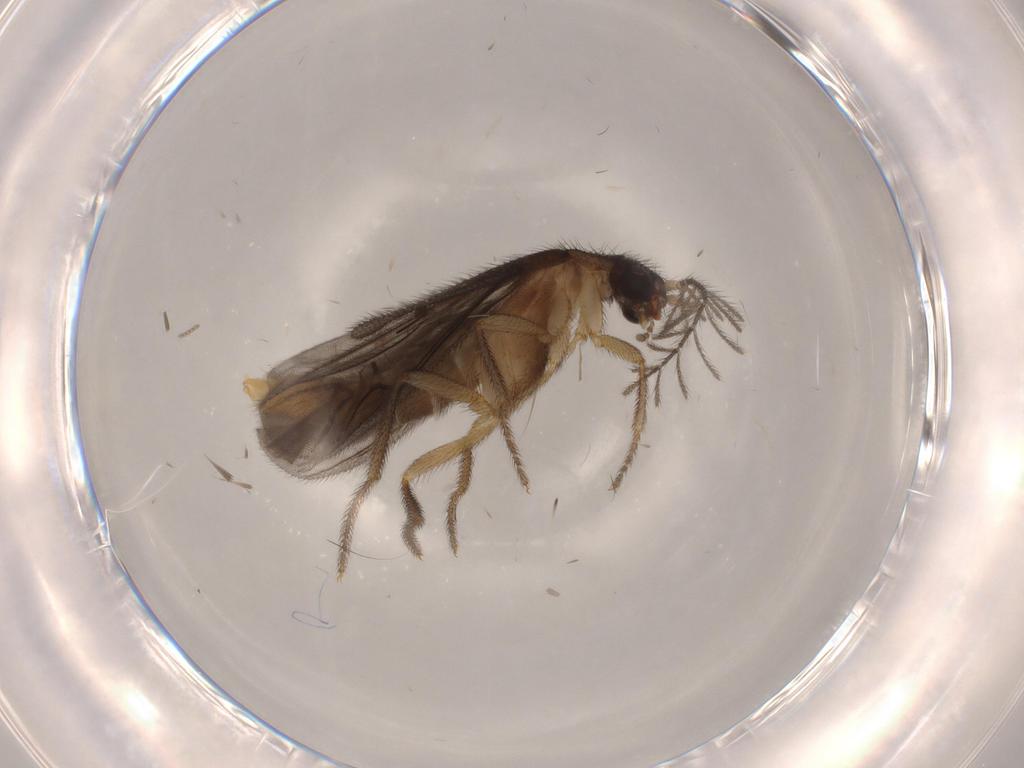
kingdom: Animalia
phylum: Arthropoda
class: Insecta
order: Coleoptera
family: Phengodidae
